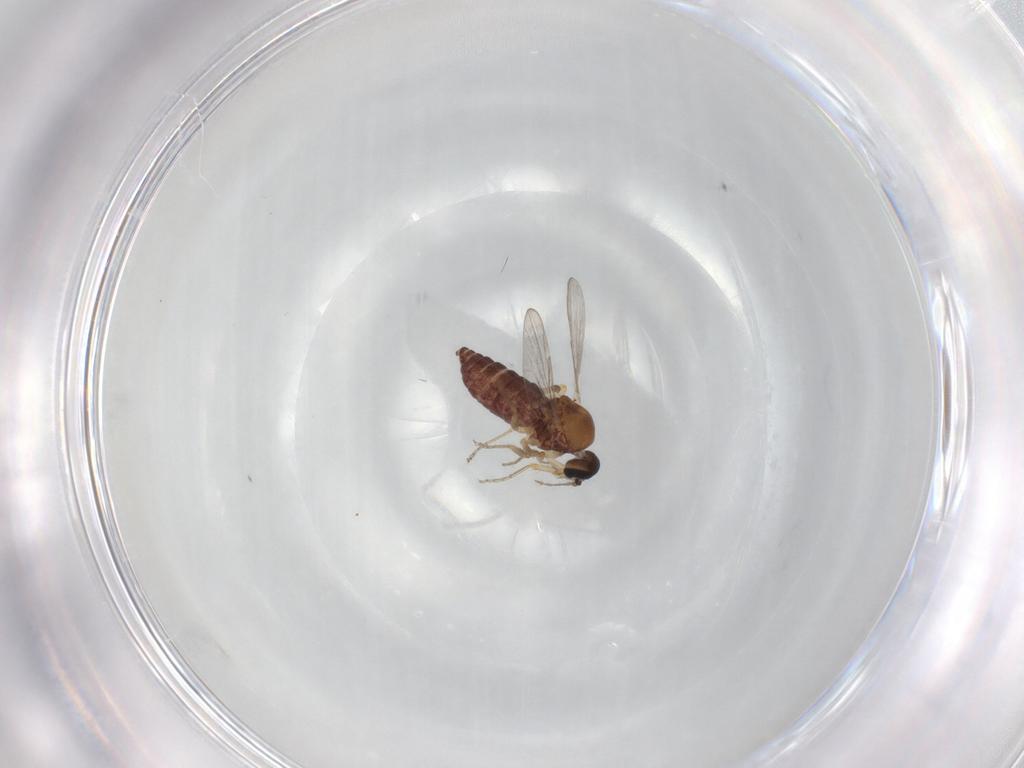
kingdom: Animalia
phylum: Arthropoda
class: Insecta
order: Diptera
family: Ceratopogonidae
